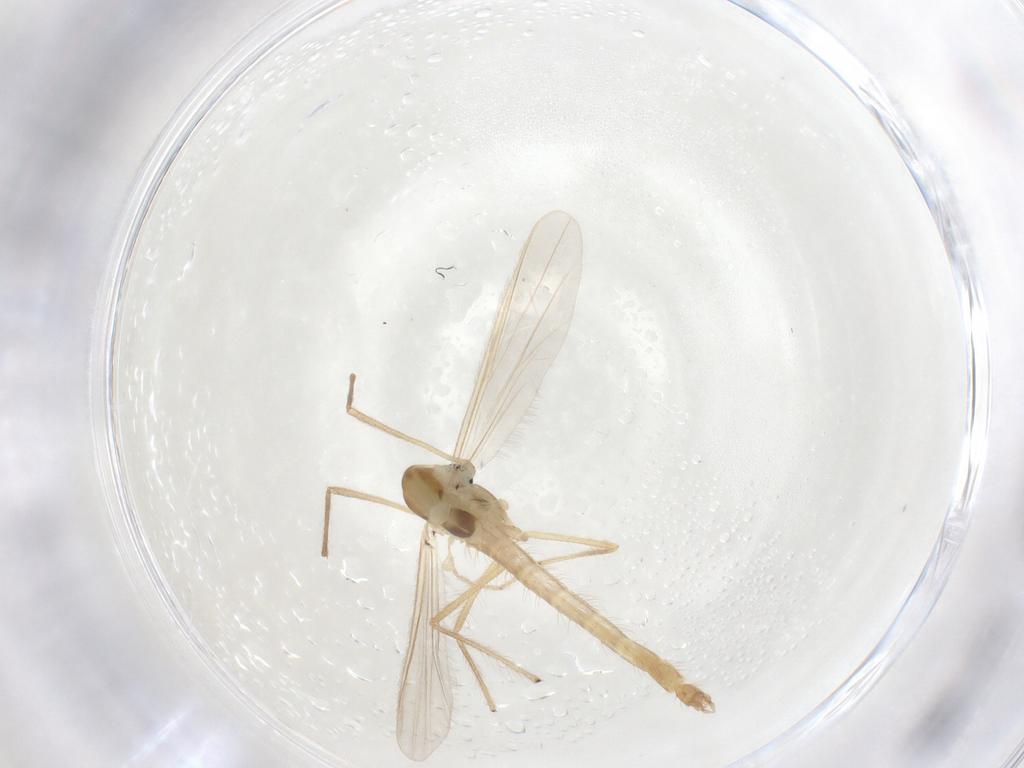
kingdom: Animalia
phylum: Arthropoda
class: Insecta
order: Diptera
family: Chironomidae
